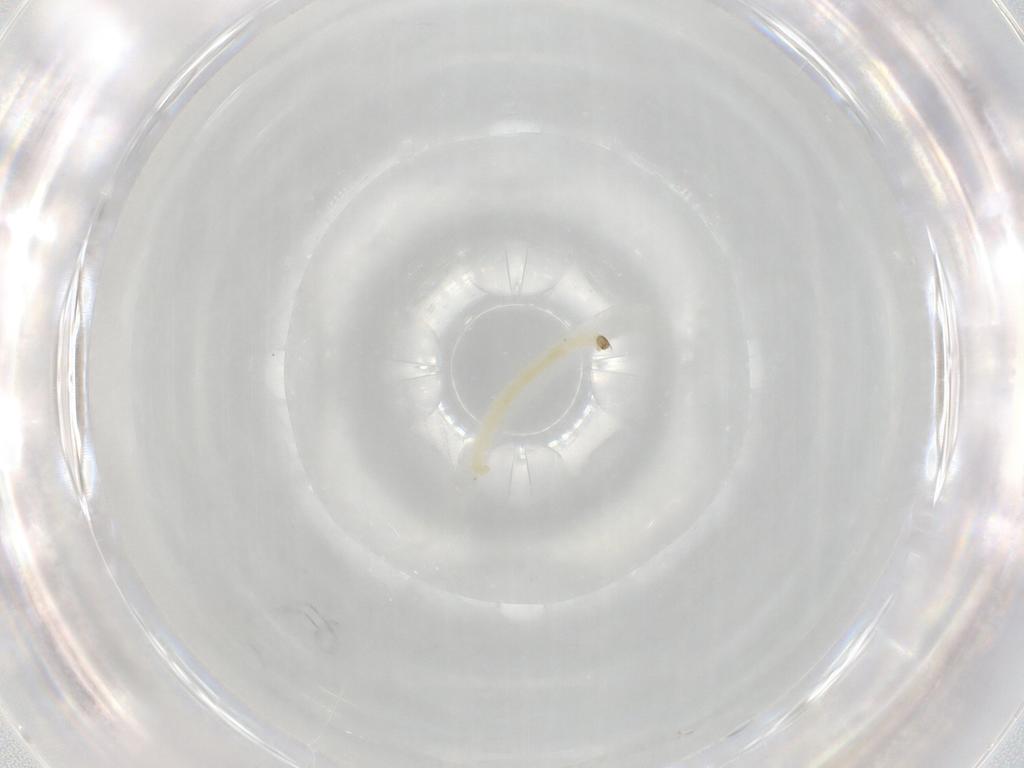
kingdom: Animalia
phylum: Arthropoda
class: Insecta
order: Diptera
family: Chironomidae
